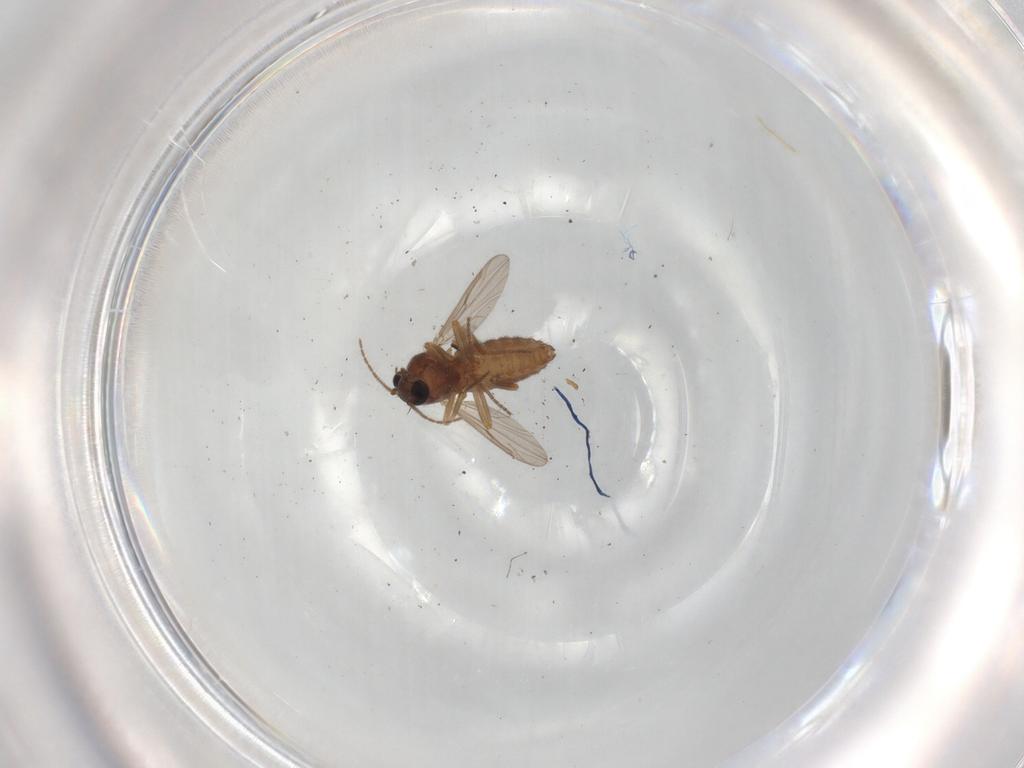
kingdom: Animalia
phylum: Arthropoda
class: Insecta
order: Diptera
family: Ceratopogonidae
